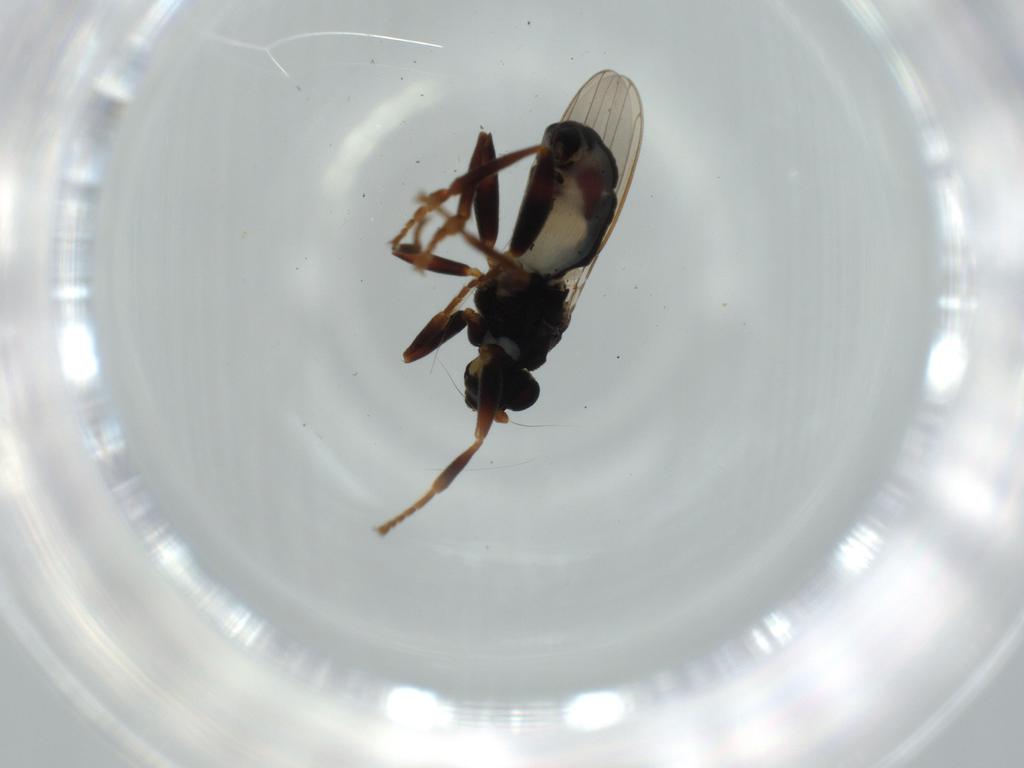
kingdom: Animalia
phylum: Arthropoda
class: Insecta
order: Diptera
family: Sphaeroceridae
